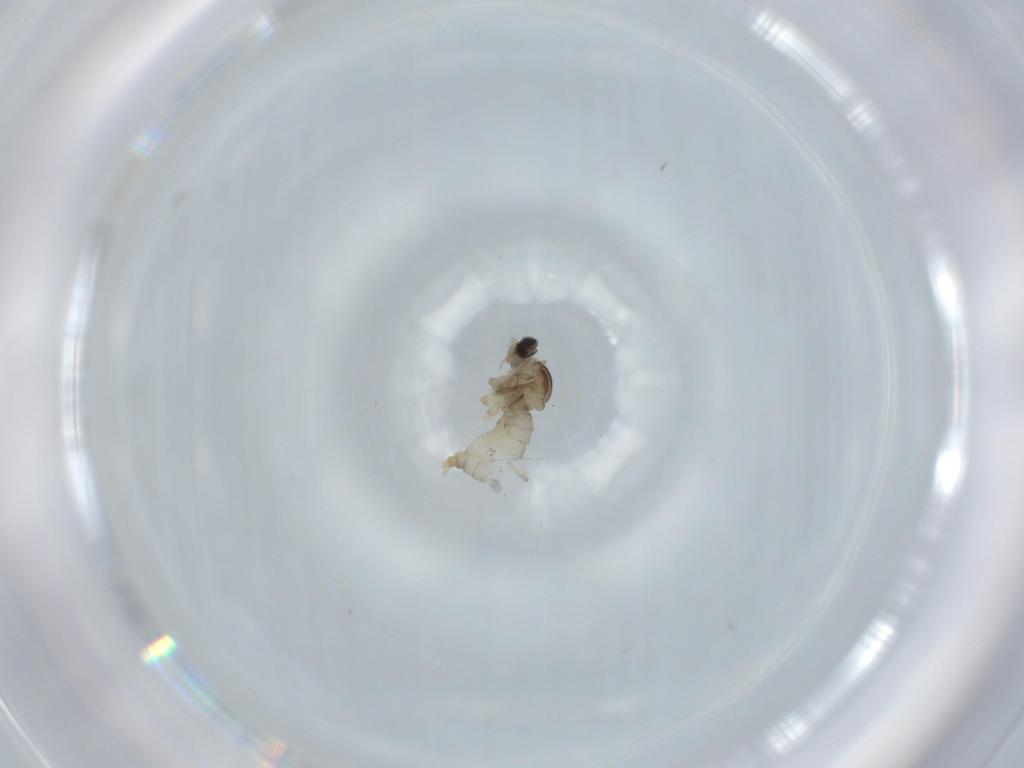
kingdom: Animalia
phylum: Arthropoda
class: Insecta
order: Diptera
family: Cecidomyiidae
